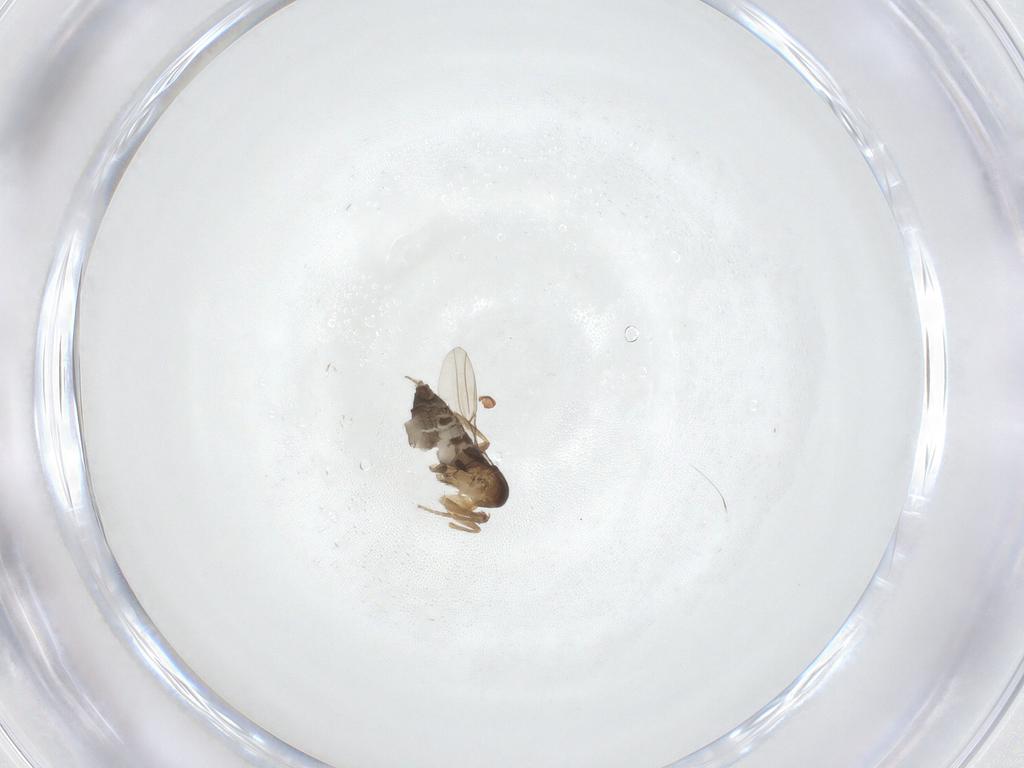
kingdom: Animalia
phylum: Arthropoda
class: Insecta
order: Diptera
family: Phoridae
